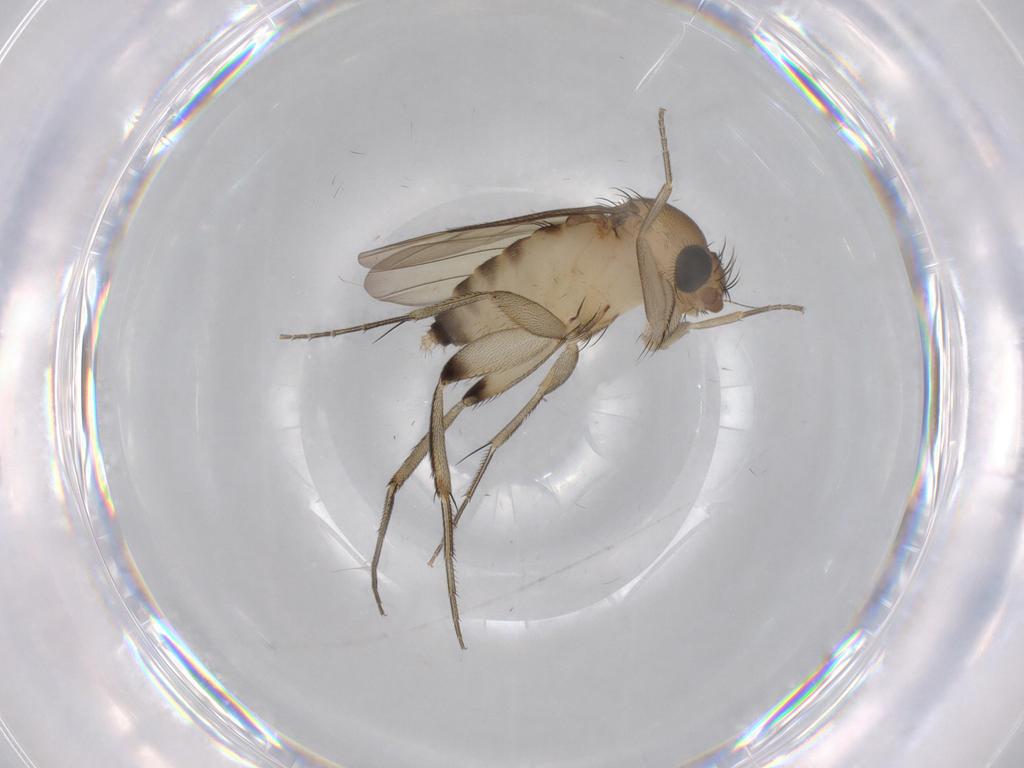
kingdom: Animalia
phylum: Arthropoda
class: Insecta
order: Diptera
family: Phoridae
